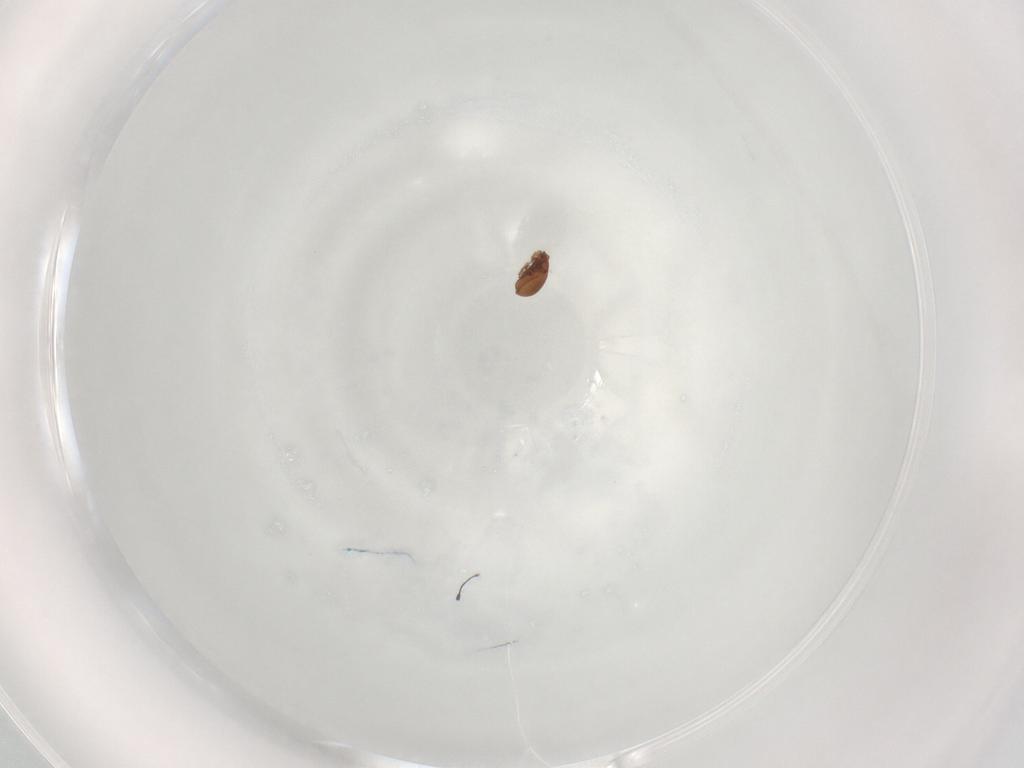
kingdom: Animalia
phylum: Arthropoda
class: Arachnida
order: Sarcoptiformes
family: Ceratoppiidae
